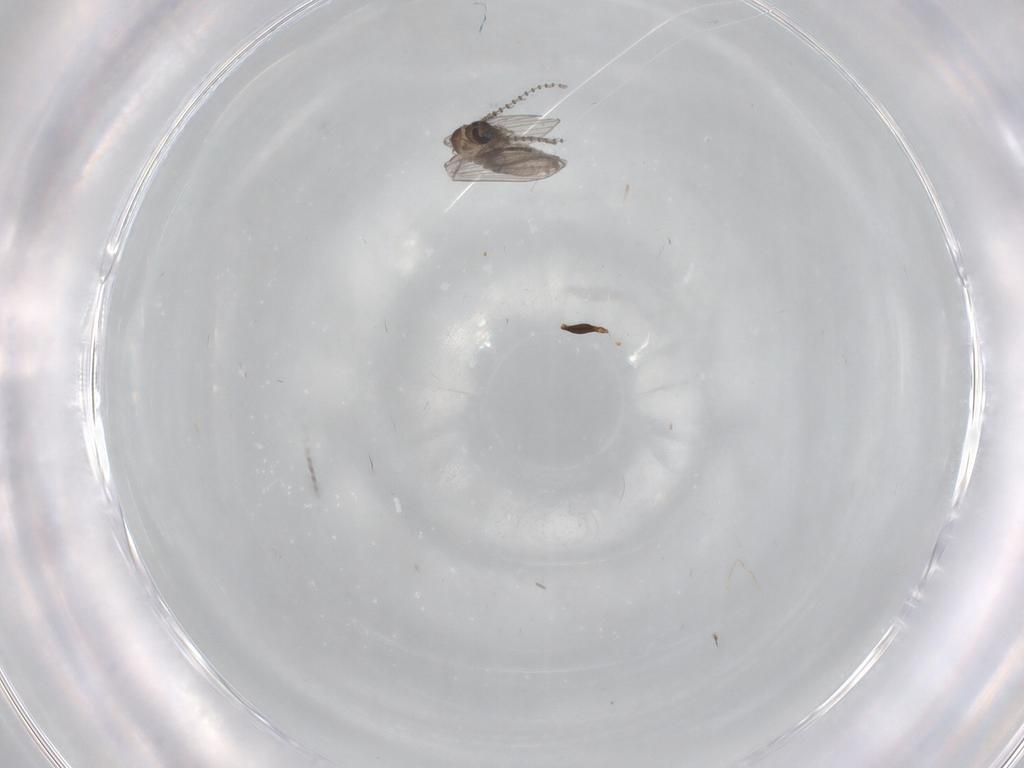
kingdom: Animalia
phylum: Arthropoda
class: Insecta
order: Diptera
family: Psychodidae
